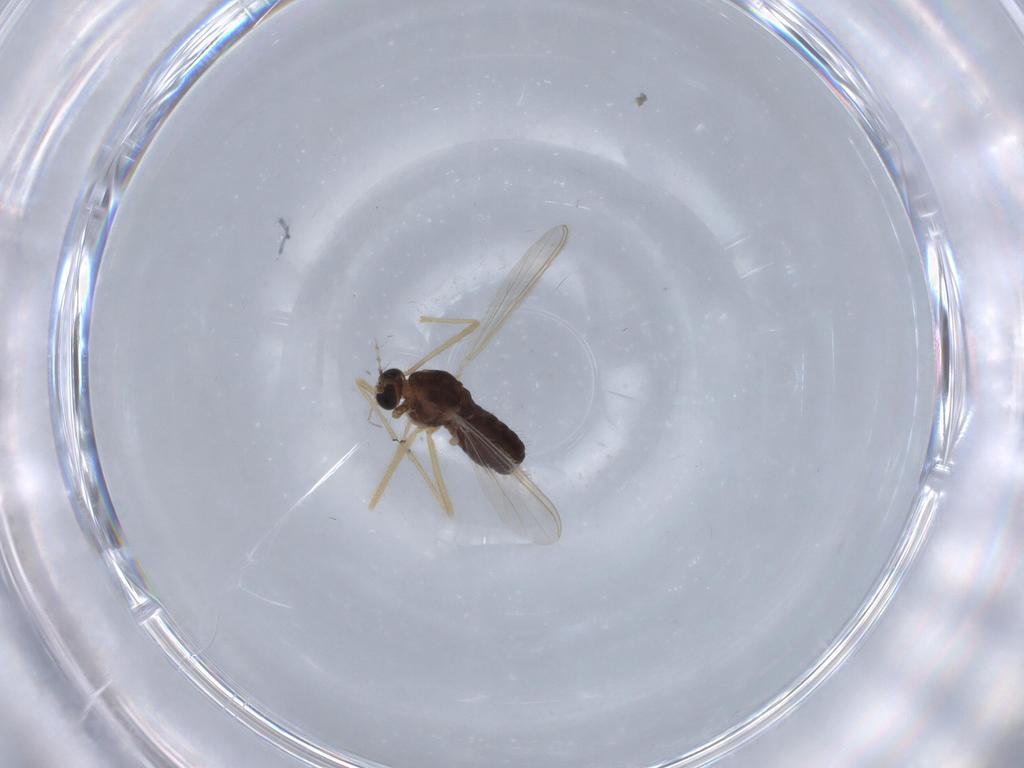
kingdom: Animalia
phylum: Arthropoda
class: Insecta
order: Diptera
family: Chironomidae
